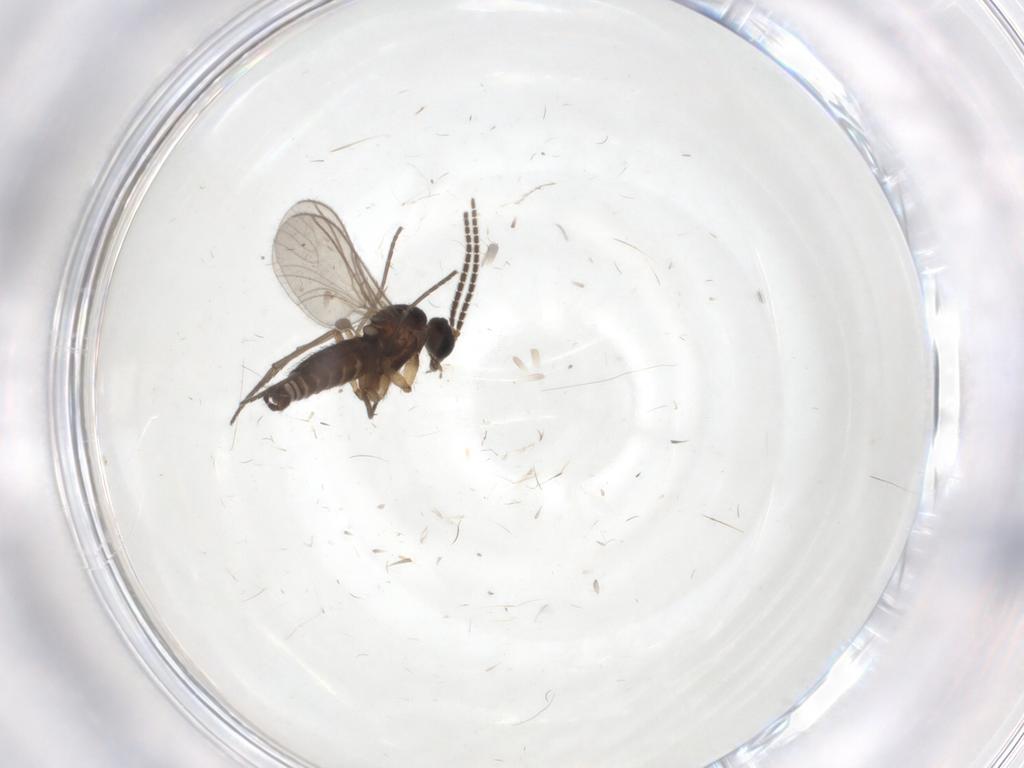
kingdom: Animalia
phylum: Arthropoda
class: Insecta
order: Diptera
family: Sciaridae
